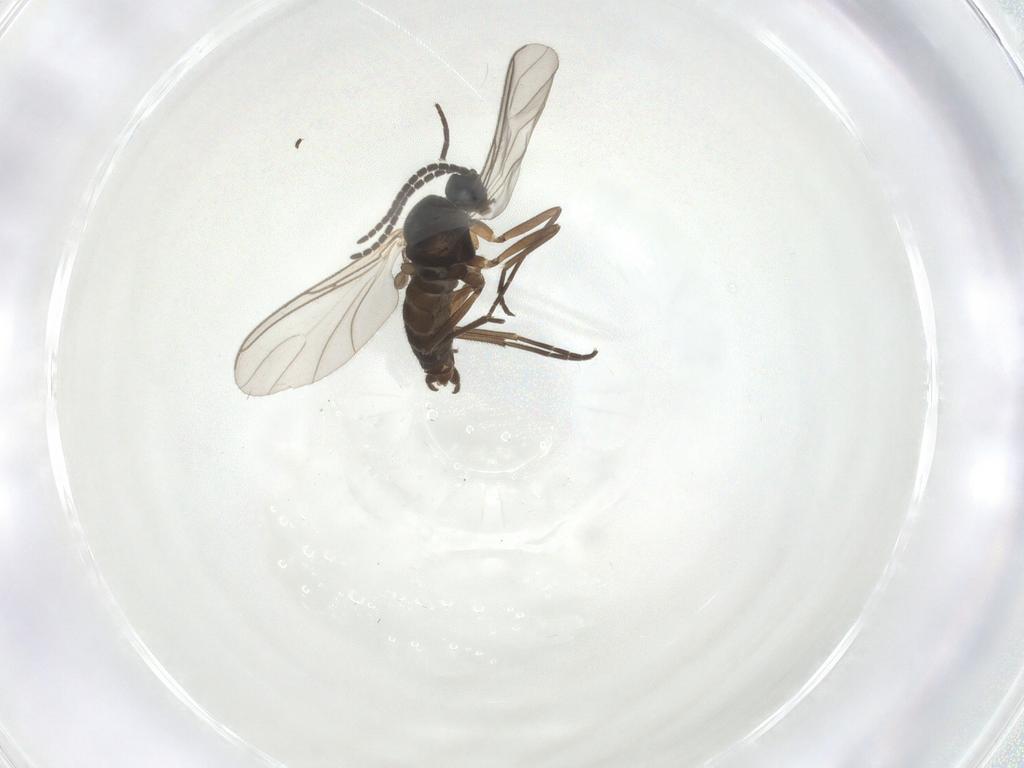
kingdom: Animalia
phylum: Arthropoda
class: Insecta
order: Diptera
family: Sciaridae
